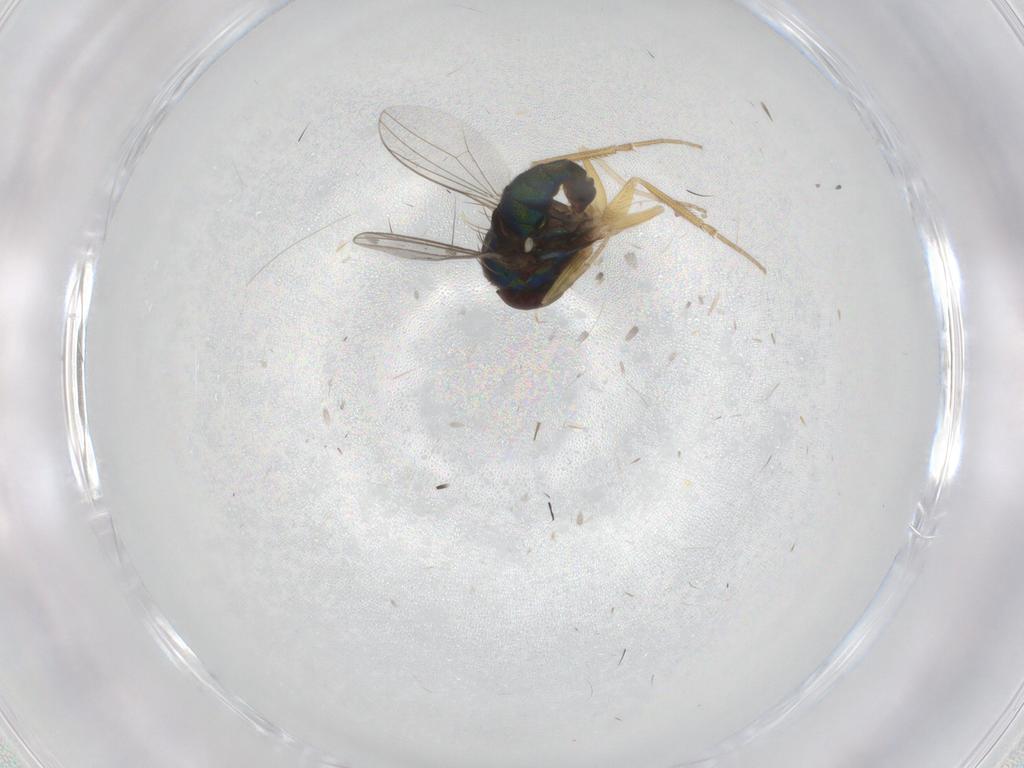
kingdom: Animalia
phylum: Arthropoda
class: Insecta
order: Diptera
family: Dolichopodidae
